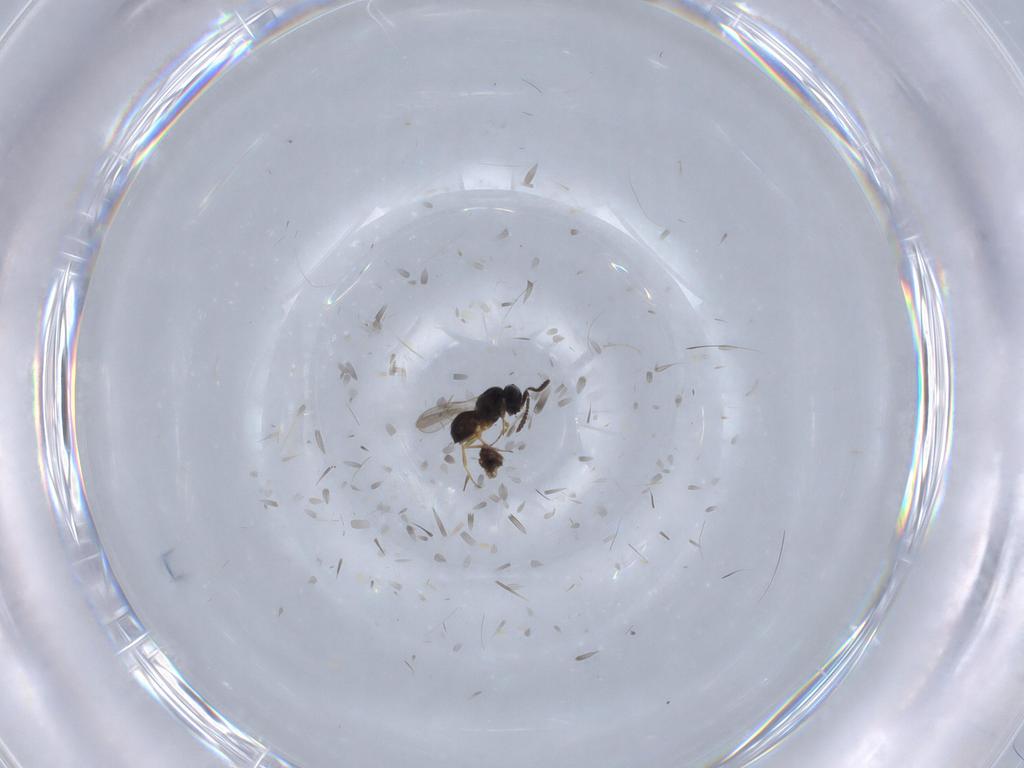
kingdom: Animalia
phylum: Arthropoda
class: Insecta
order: Hymenoptera
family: Scelionidae
